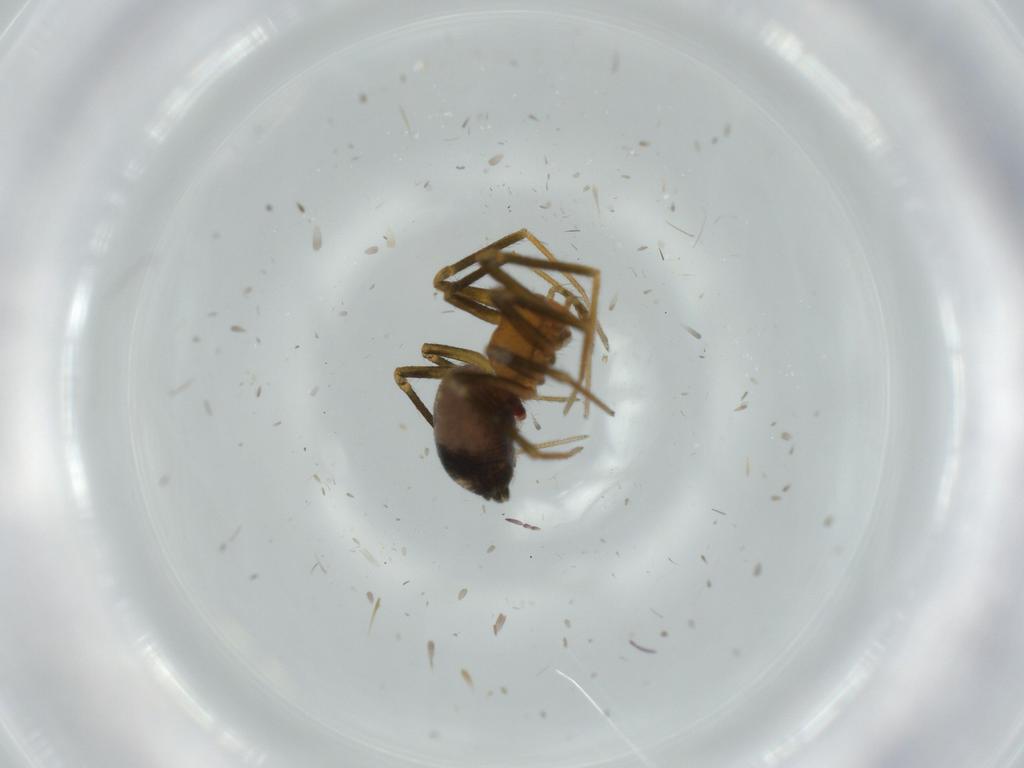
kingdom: Animalia
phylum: Arthropoda
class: Arachnida
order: Araneae
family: Linyphiidae
